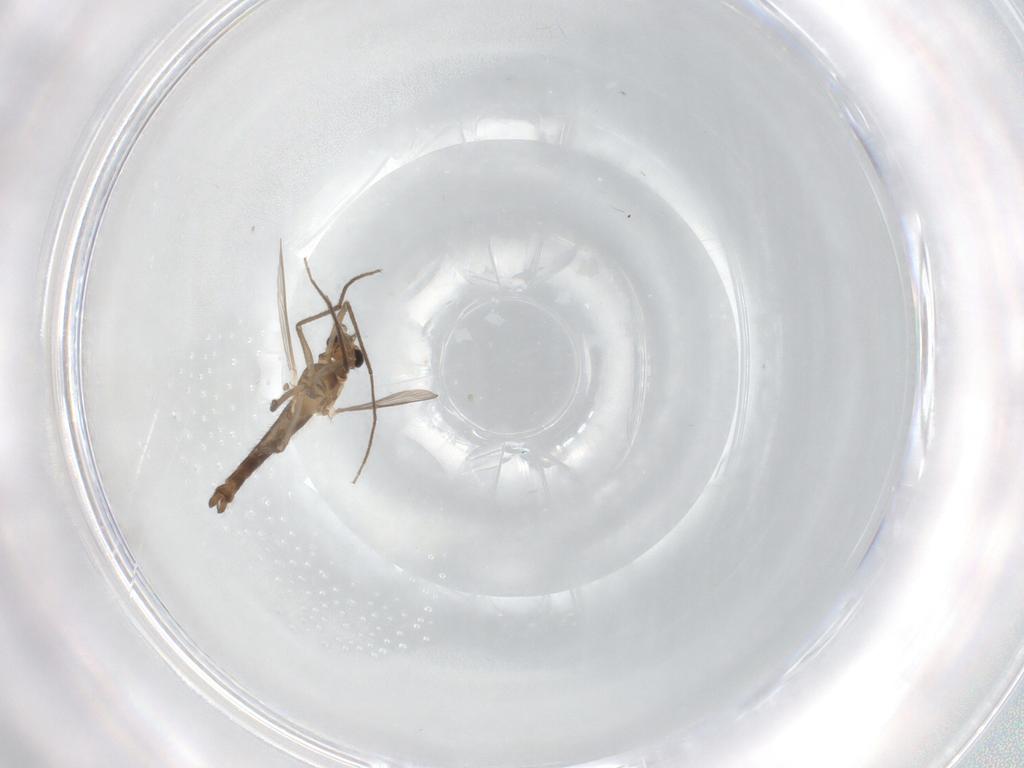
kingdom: Animalia
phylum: Arthropoda
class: Insecta
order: Diptera
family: Chironomidae
